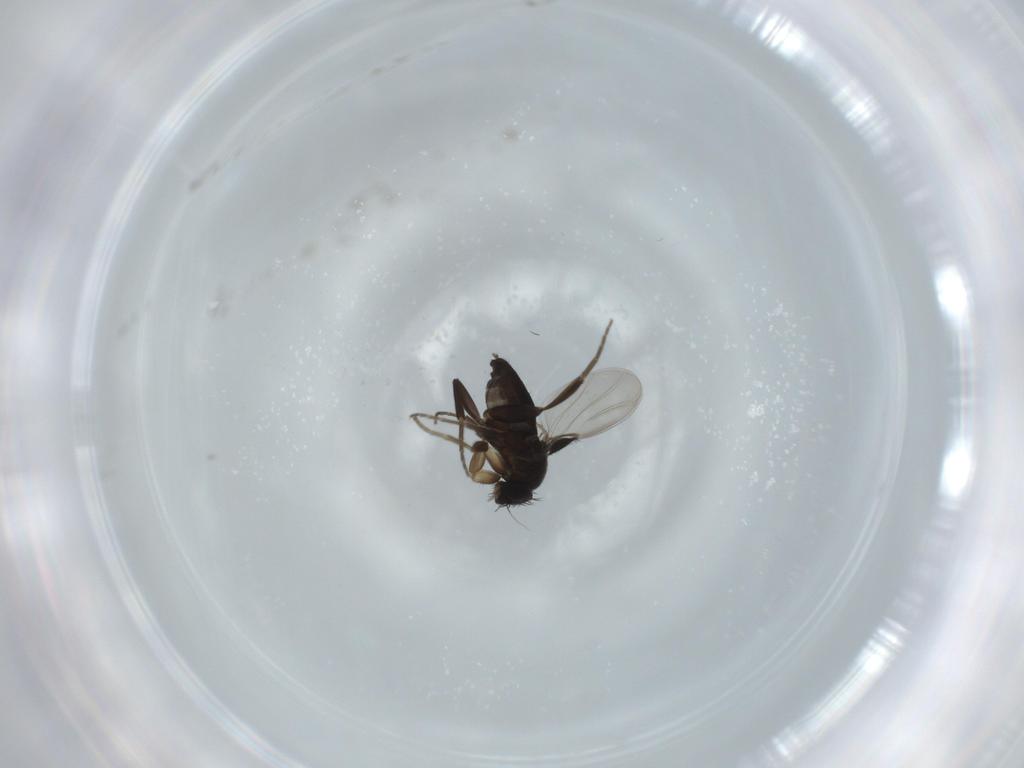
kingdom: Animalia
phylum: Arthropoda
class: Insecta
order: Diptera
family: Phoridae
